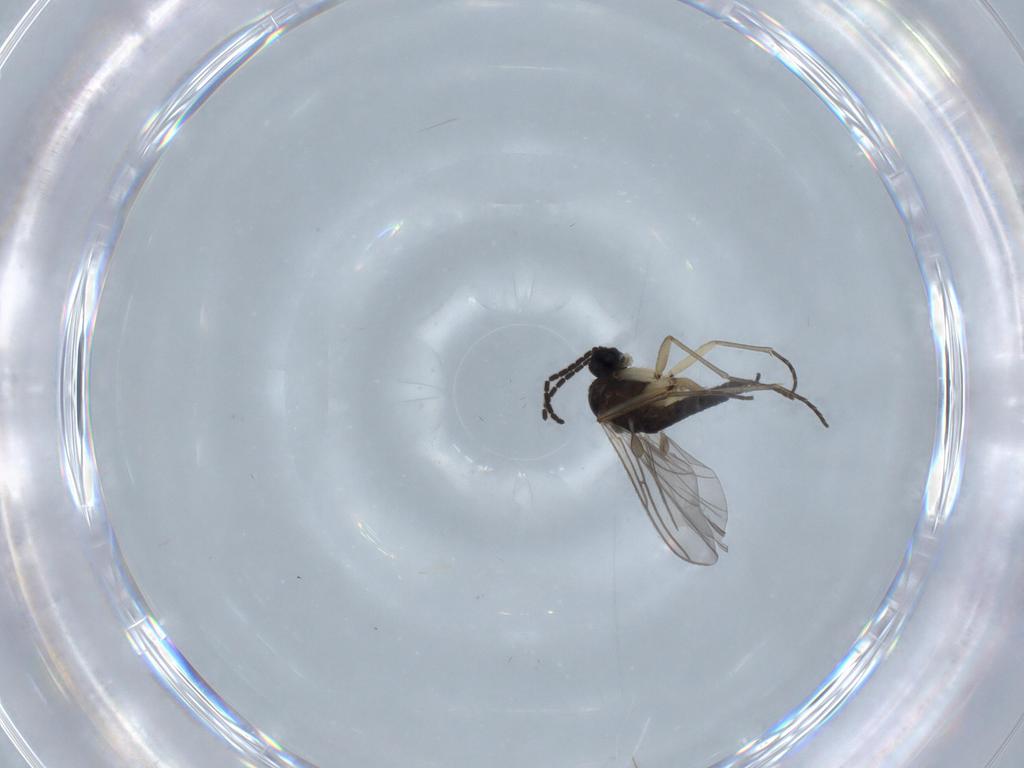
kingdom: Animalia
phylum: Arthropoda
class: Insecta
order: Diptera
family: Sciaridae
